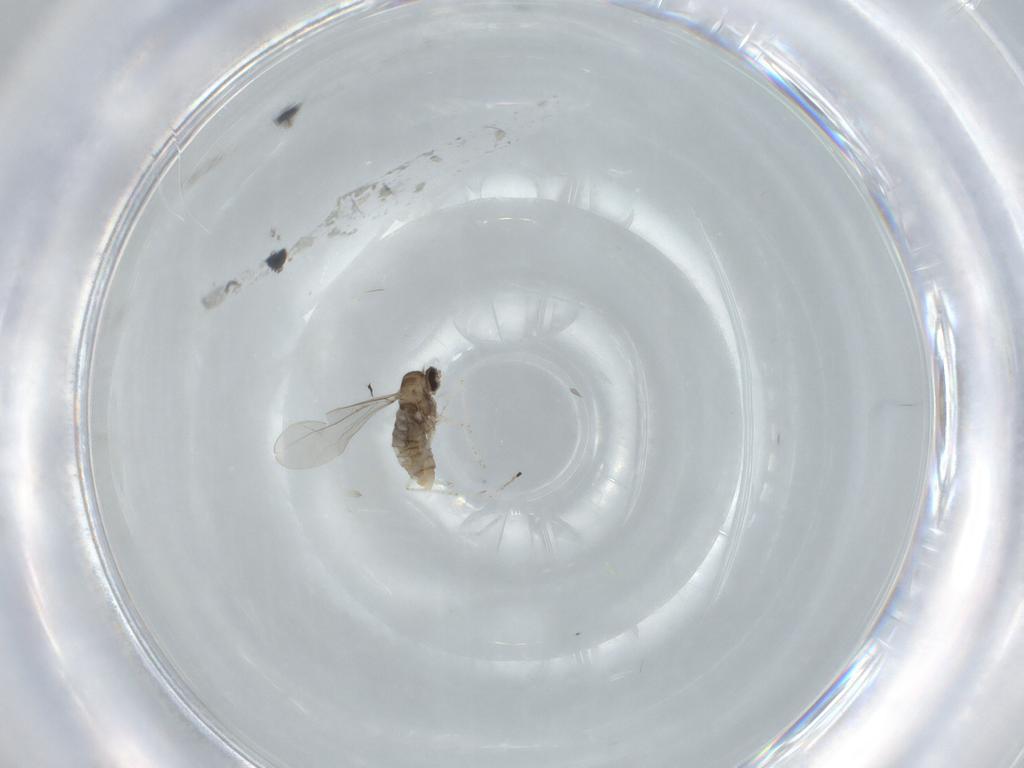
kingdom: Animalia
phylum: Arthropoda
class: Insecta
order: Diptera
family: Cecidomyiidae
